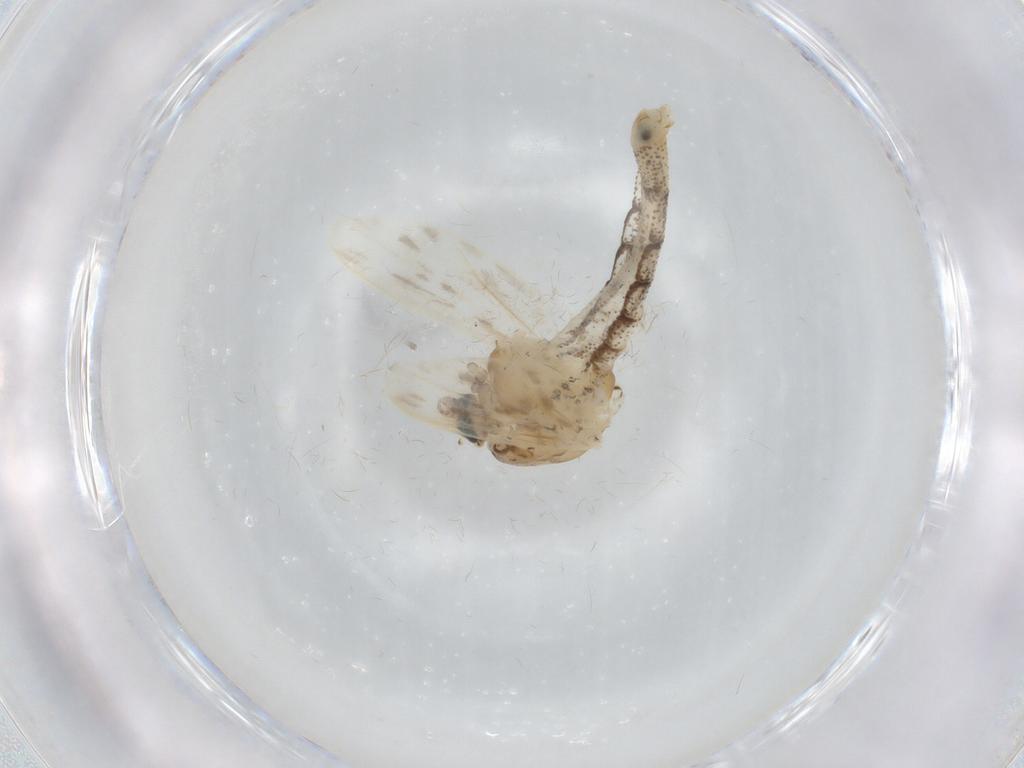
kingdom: Animalia
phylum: Arthropoda
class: Insecta
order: Diptera
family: Chaoboridae
